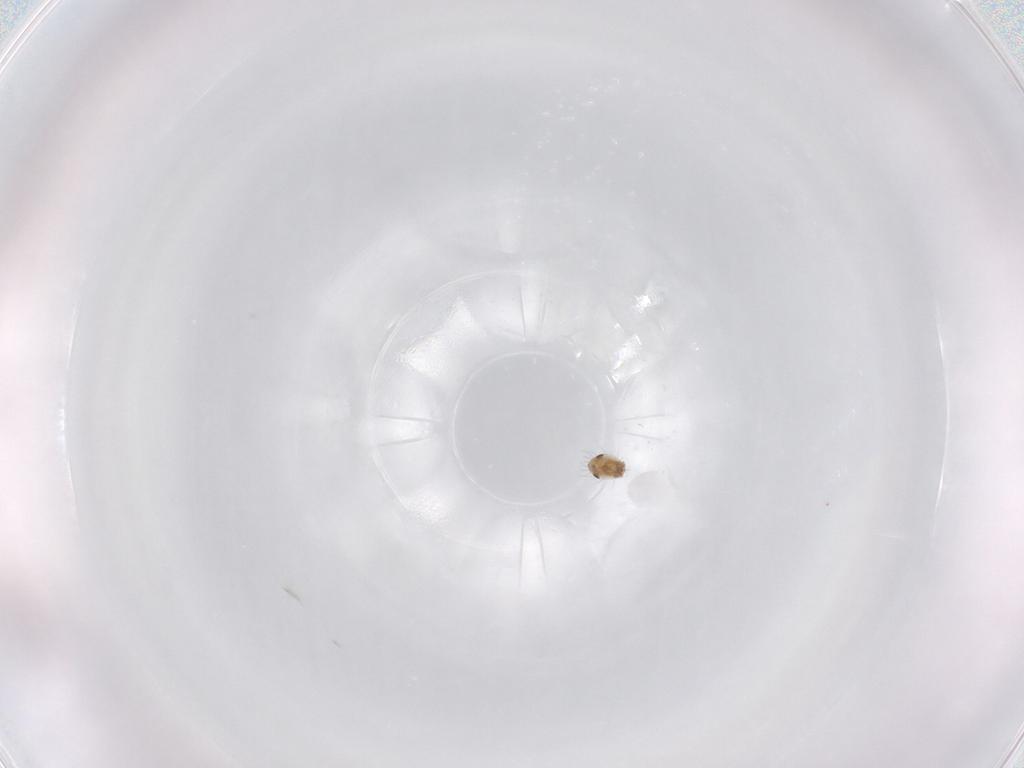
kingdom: Animalia
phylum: Arthropoda
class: Arachnida
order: Sarcoptiformes
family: Humerobatidae
